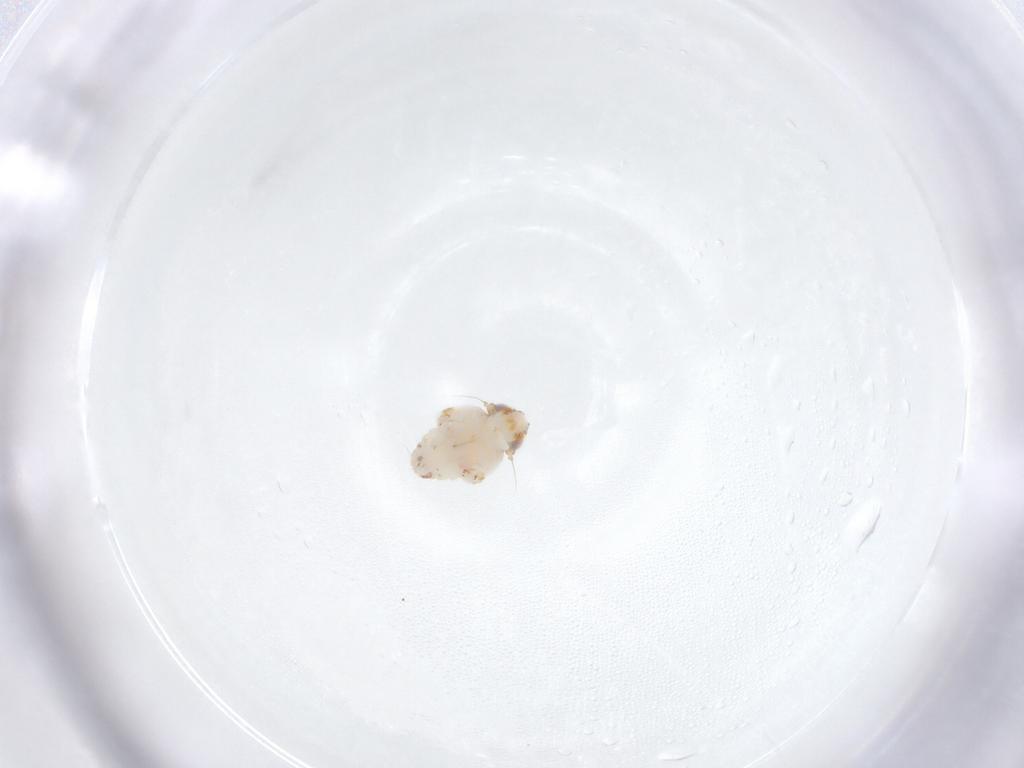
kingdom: Animalia
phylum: Arthropoda
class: Insecta
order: Hemiptera
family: Nogodinidae
